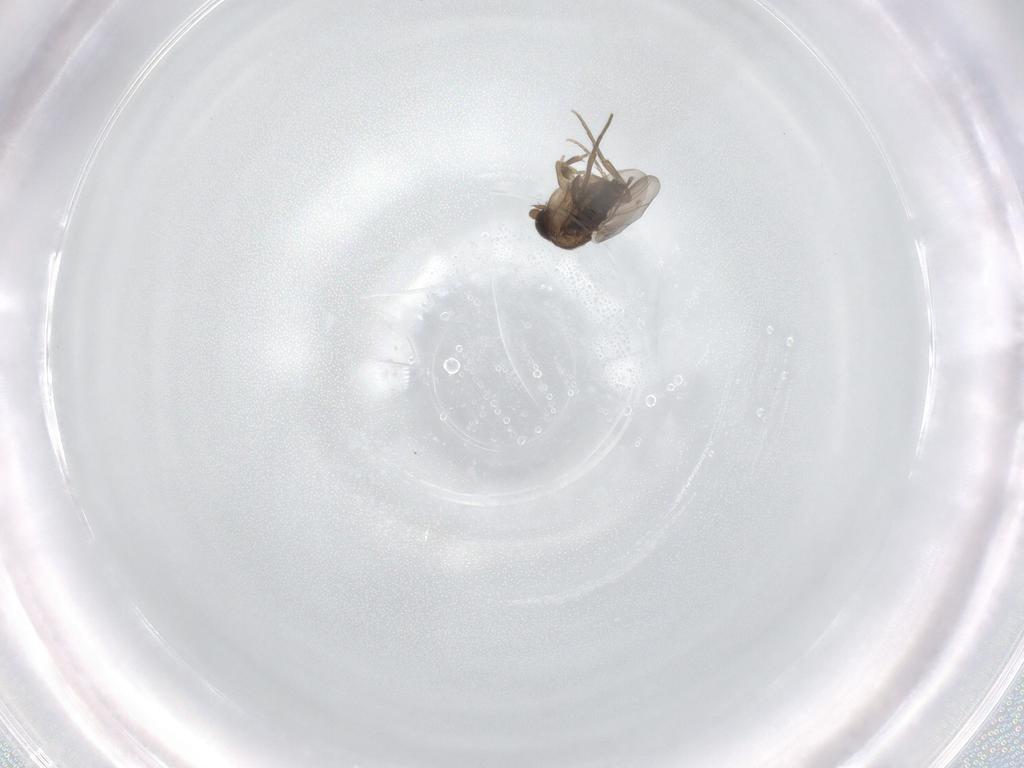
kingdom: Animalia
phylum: Arthropoda
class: Insecta
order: Diptera
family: Phoridae
